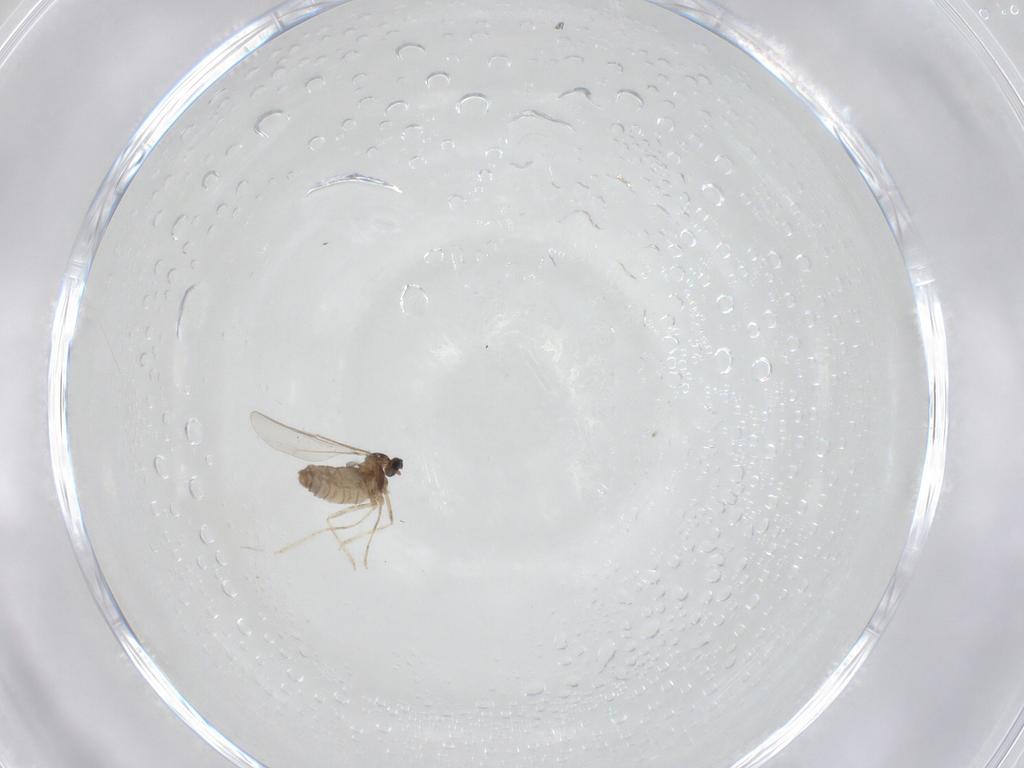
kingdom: Animalia
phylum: Arthropoda
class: Insecta
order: Diptera
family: Cecidomyiidae
